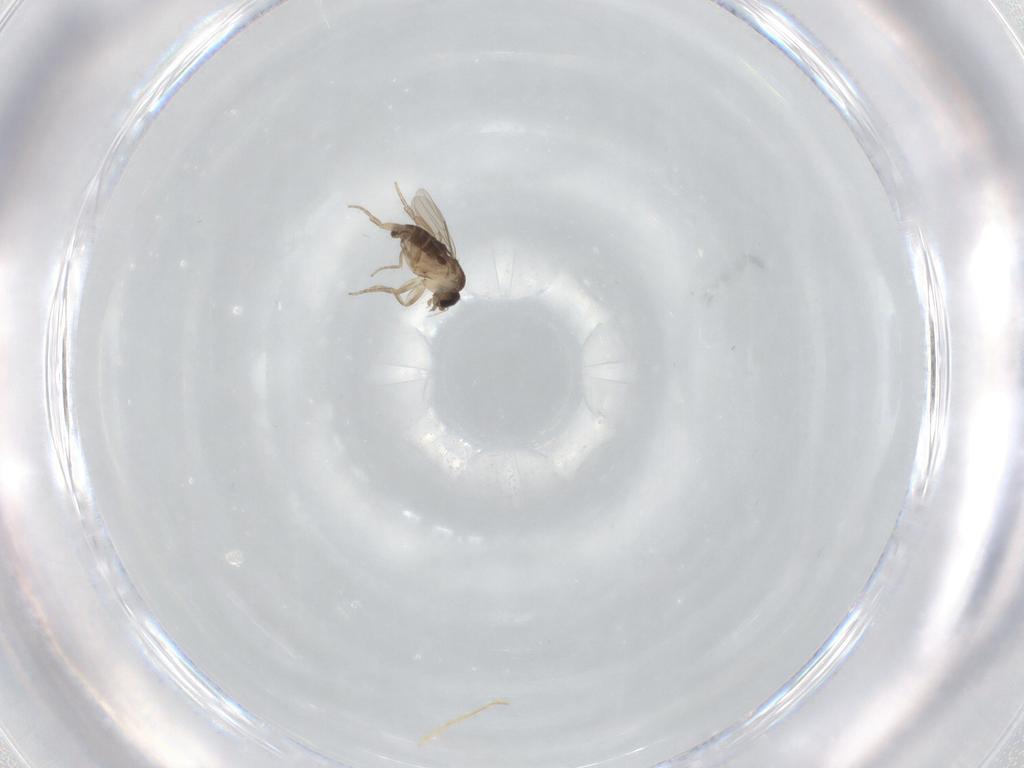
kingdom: Animalia
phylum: Arthropoda
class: Insecta
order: Diptera
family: Phoridae
